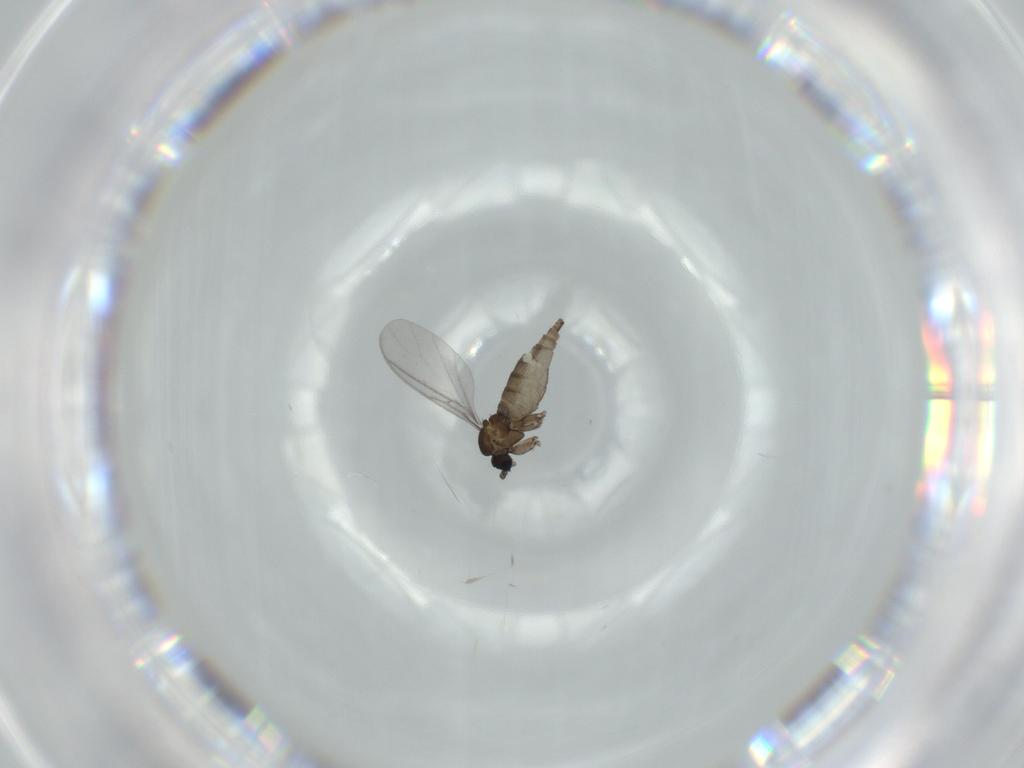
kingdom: Animalia
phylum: Arthropoda
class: Insecta
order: Diptera
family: Sciaridae
